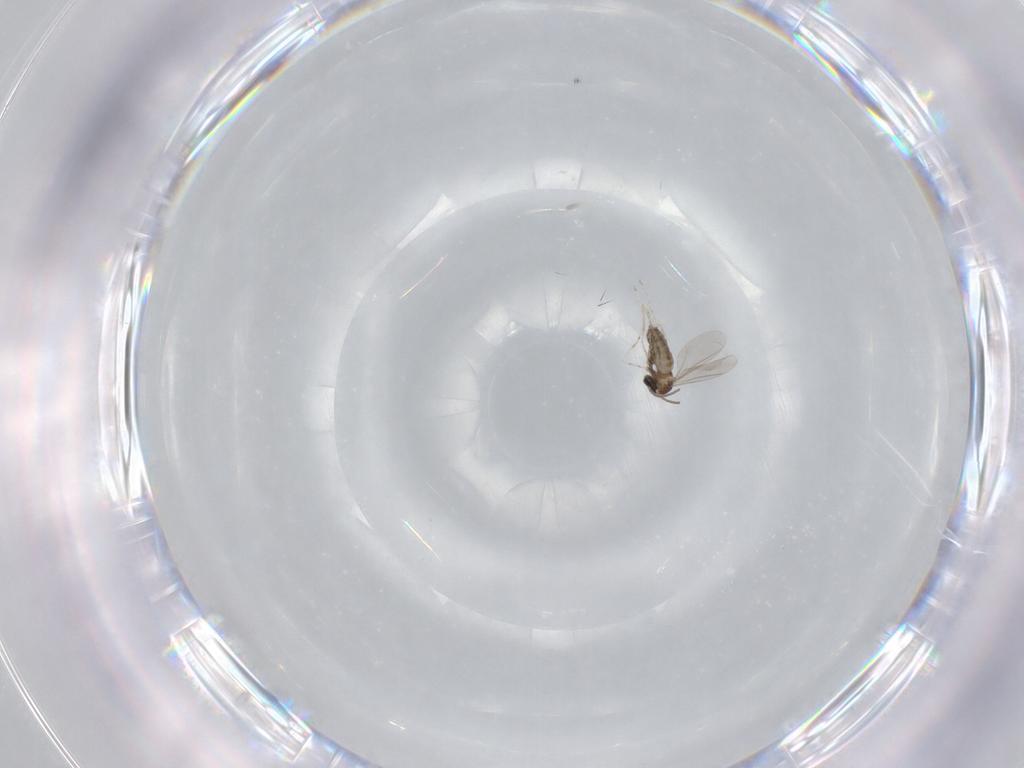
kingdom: Animalia
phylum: Arthropoda
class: Insecta
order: Diptera
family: Cecidomyiidae
